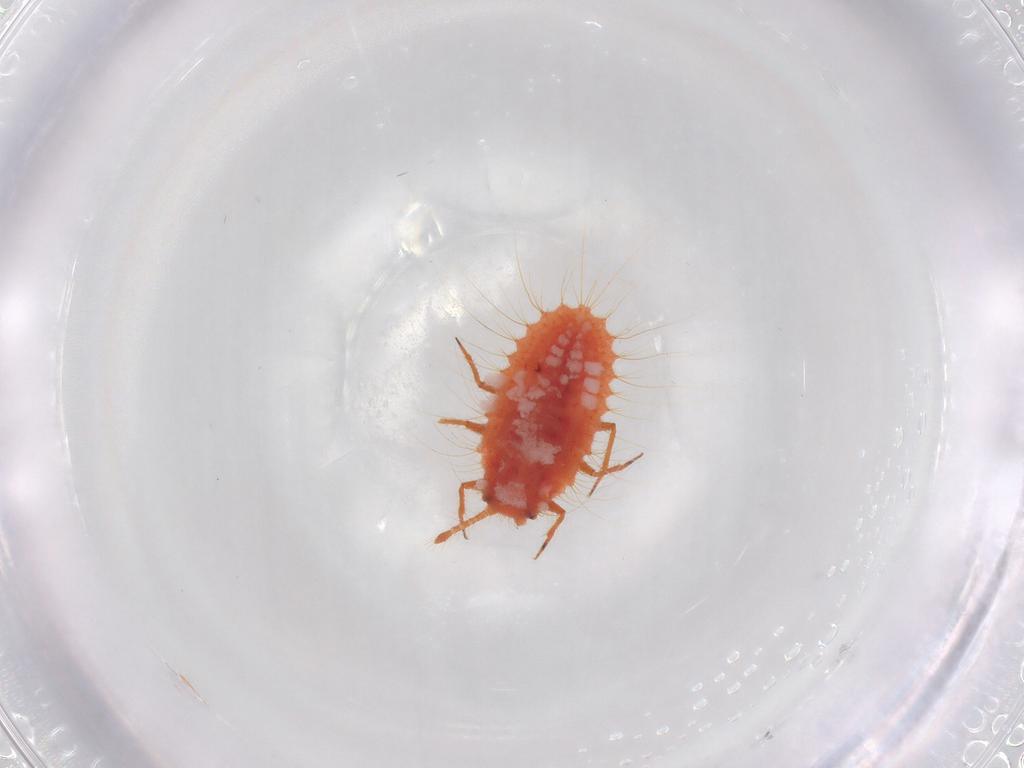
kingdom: Animalia
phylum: Arthropoda
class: Insecta
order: Hemiptera
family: Coccoidea_incertae_sedis
